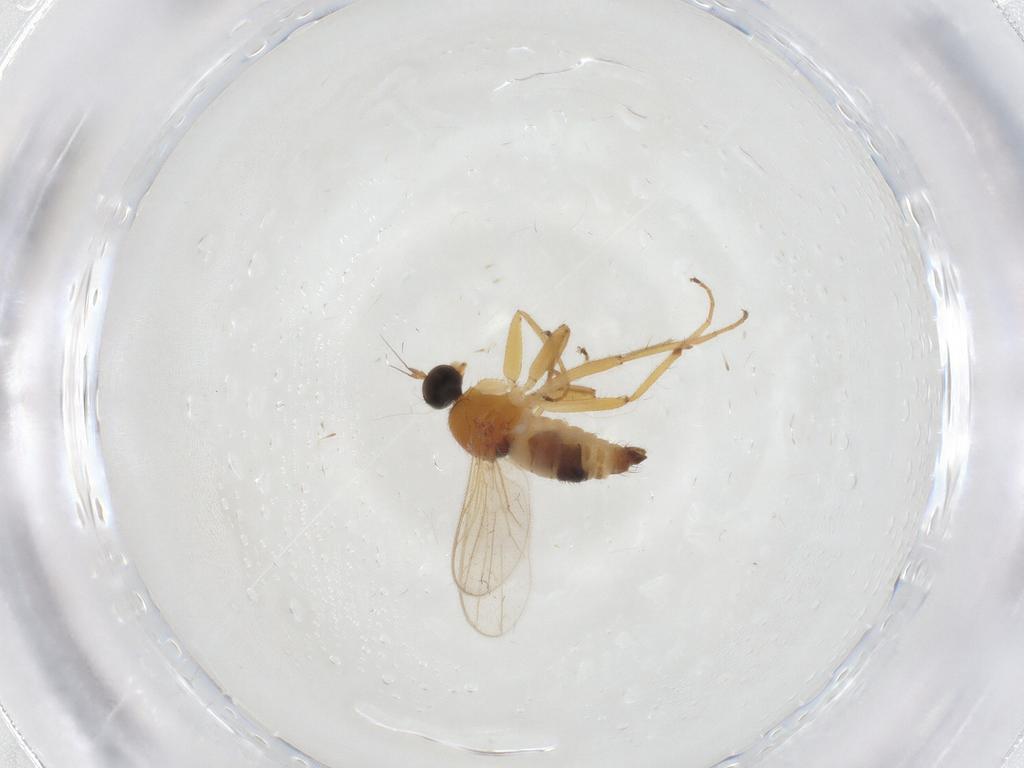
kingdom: Animalia
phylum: Arthropoda
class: Insecta
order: Diptera
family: Hybotidae
